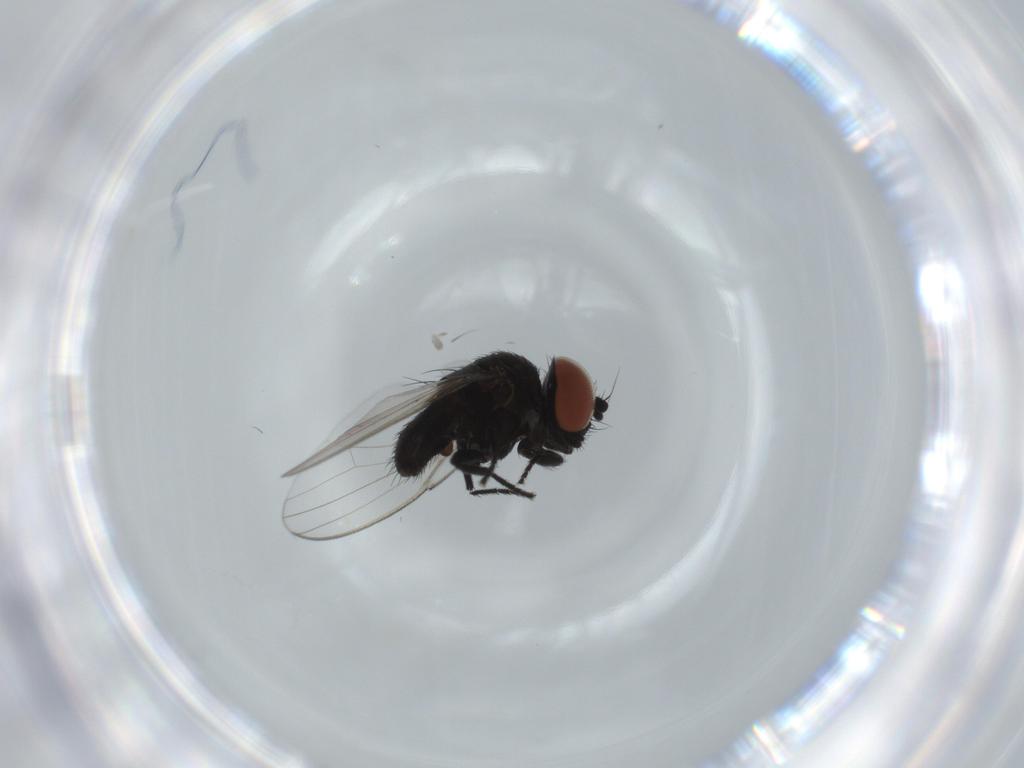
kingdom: Animalia
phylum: Arthropoda
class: Insecta
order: Diptera
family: Milichiidae
